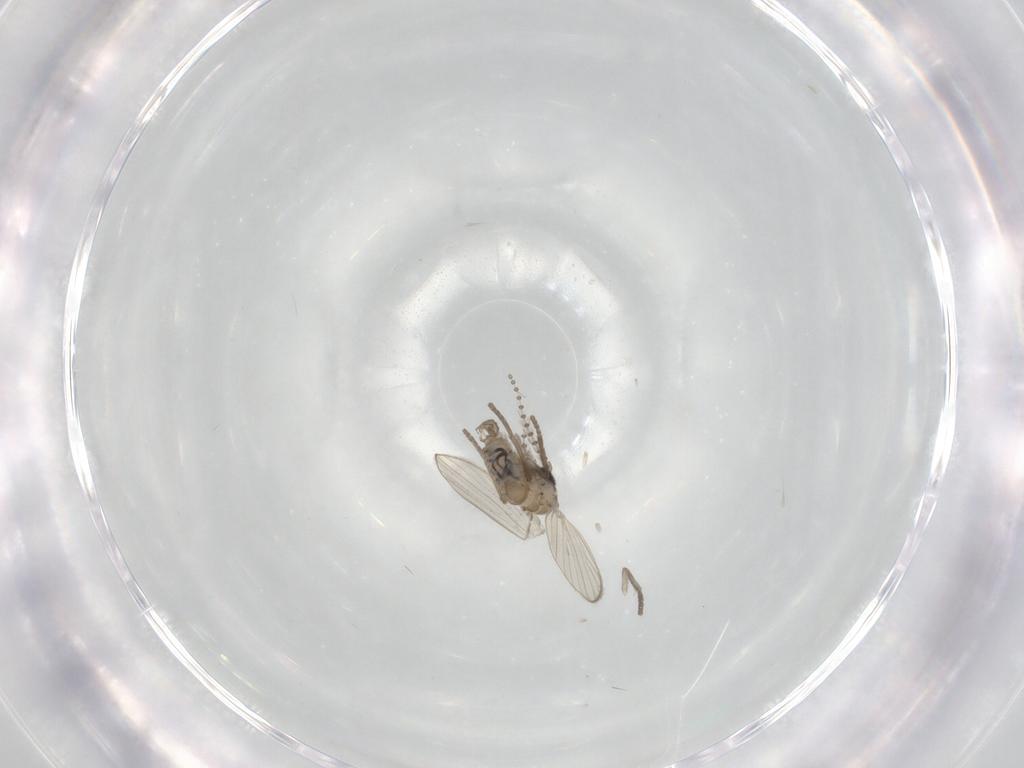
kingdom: Animalia
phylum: Arthropoda
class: Insecta
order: Diptera
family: Psychodidae
